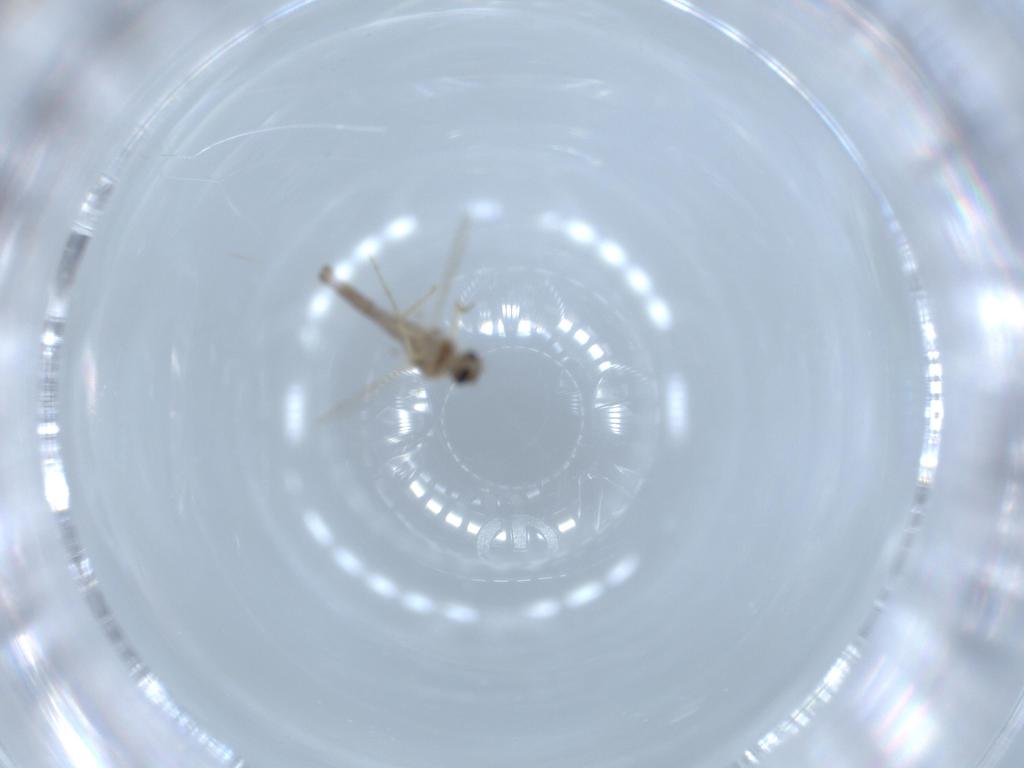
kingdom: Animalia
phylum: Arthropoda
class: Insecta
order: Diptera
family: Ceratopogonidae
